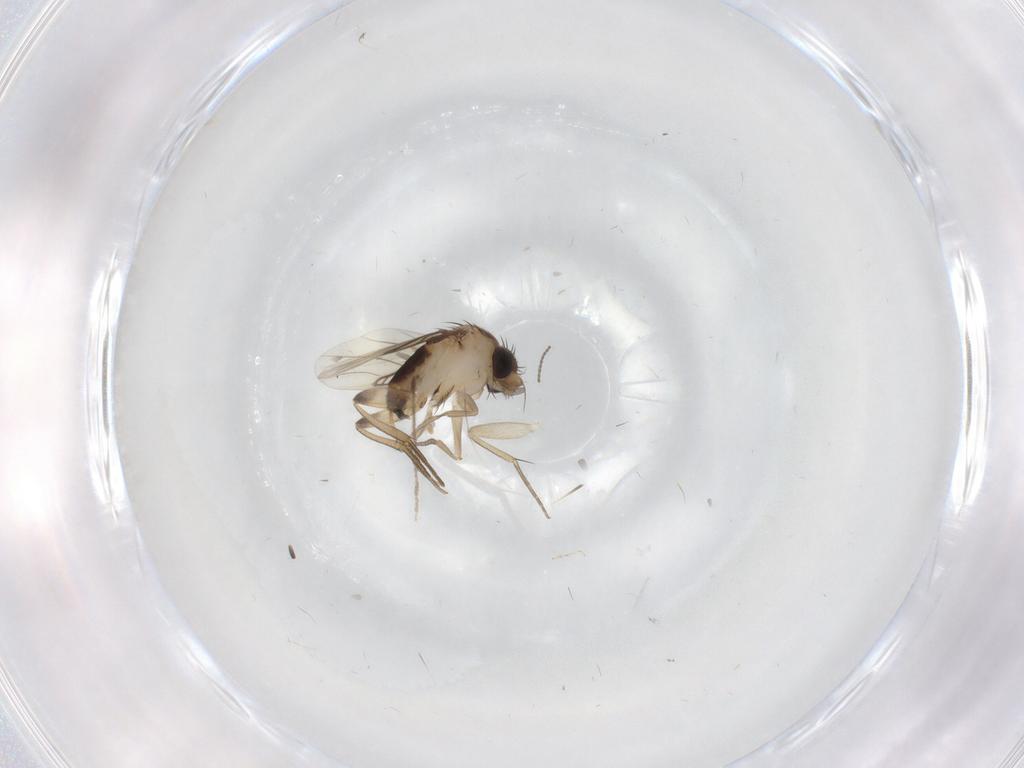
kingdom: Animalia
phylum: Arthropoda
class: Insecta
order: Diptera
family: Chironomidae
